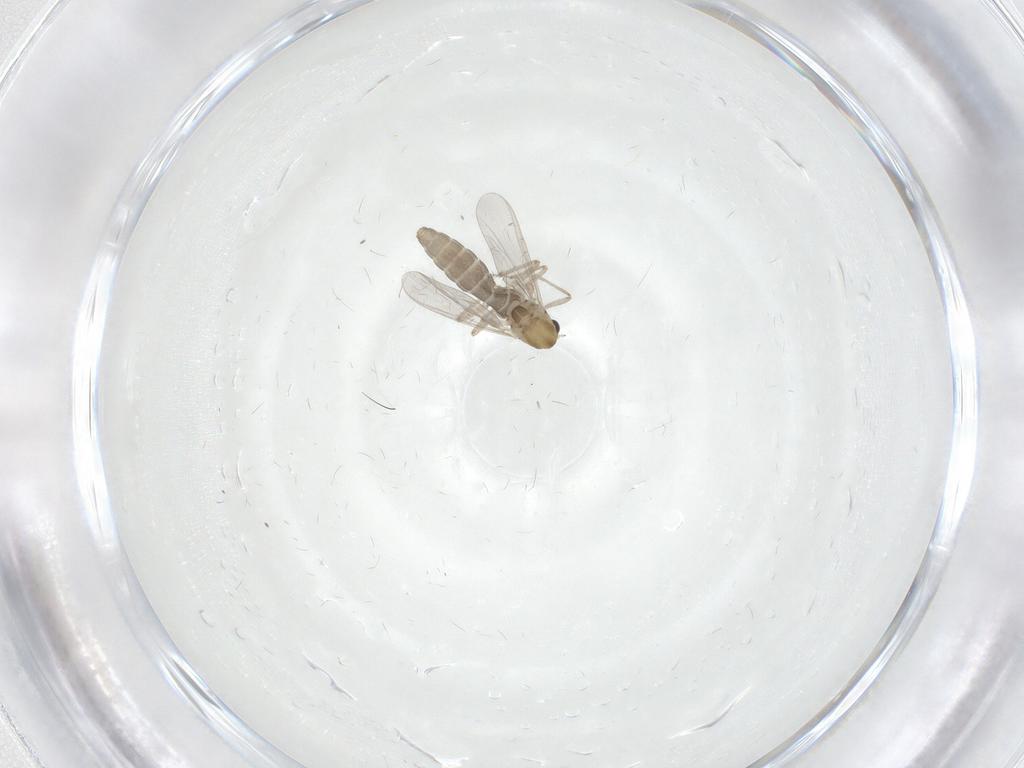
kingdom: Animalia
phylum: Arthropoda
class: Insecta
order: Diptera
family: Chironomidae
